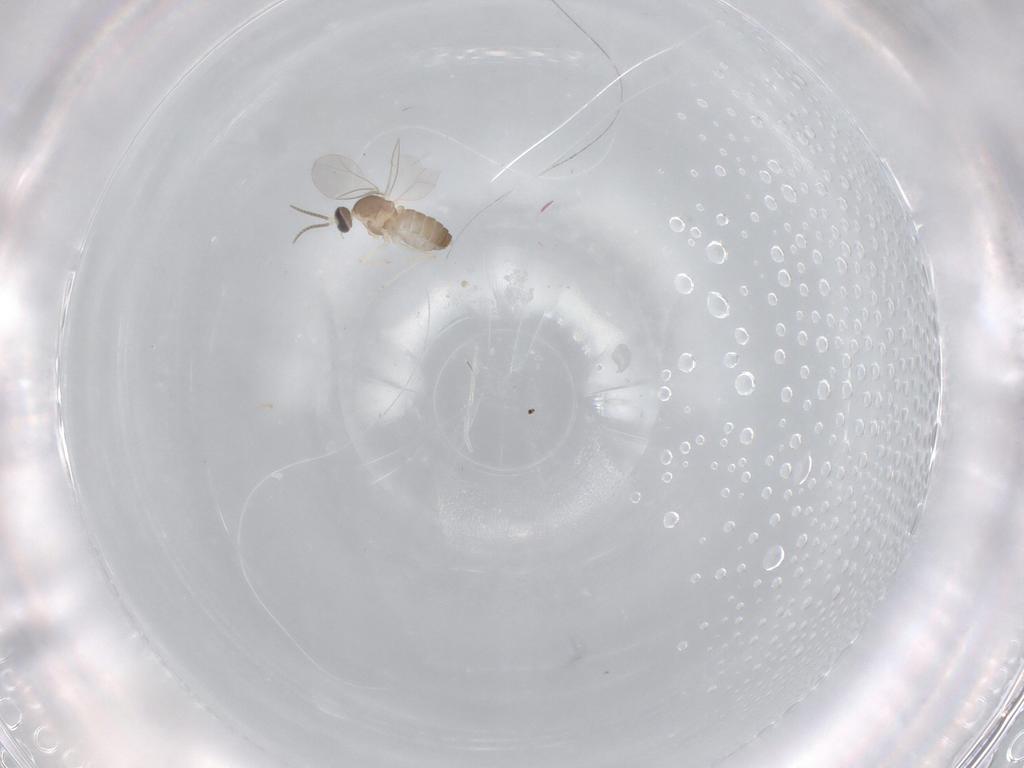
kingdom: Animalia
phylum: Arthropoda
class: Insecta
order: Diptera
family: Cecidomyiidae
